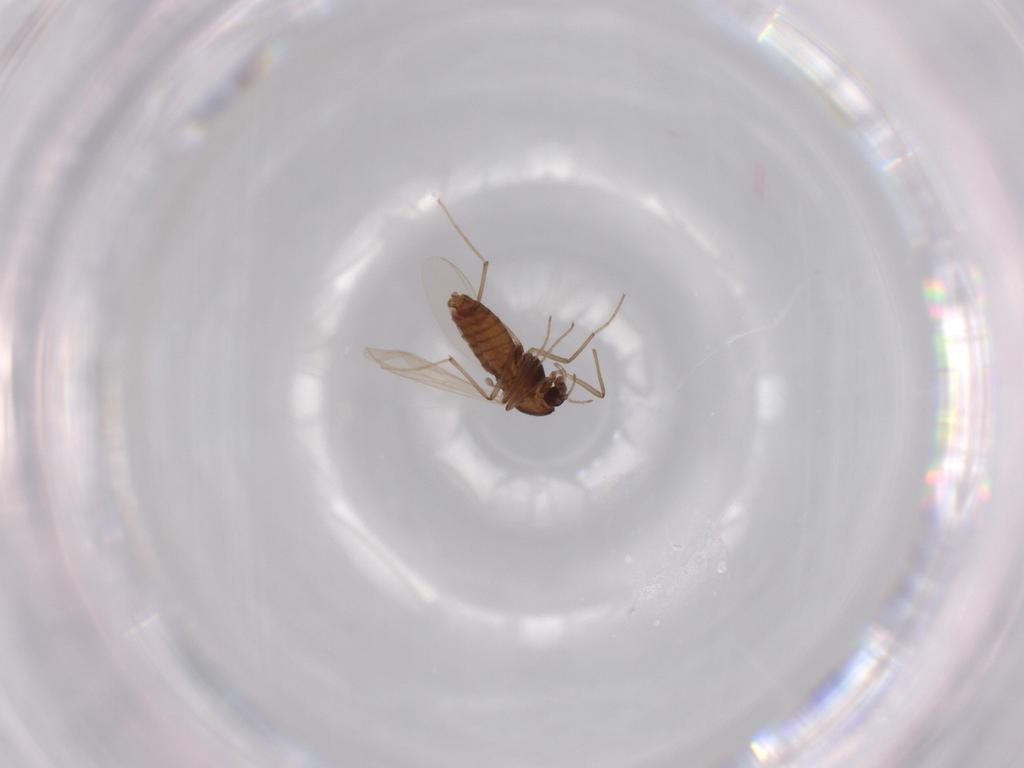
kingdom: Animalia
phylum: Arthropoda
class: Insecta
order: Diptera
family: Chironomidae
